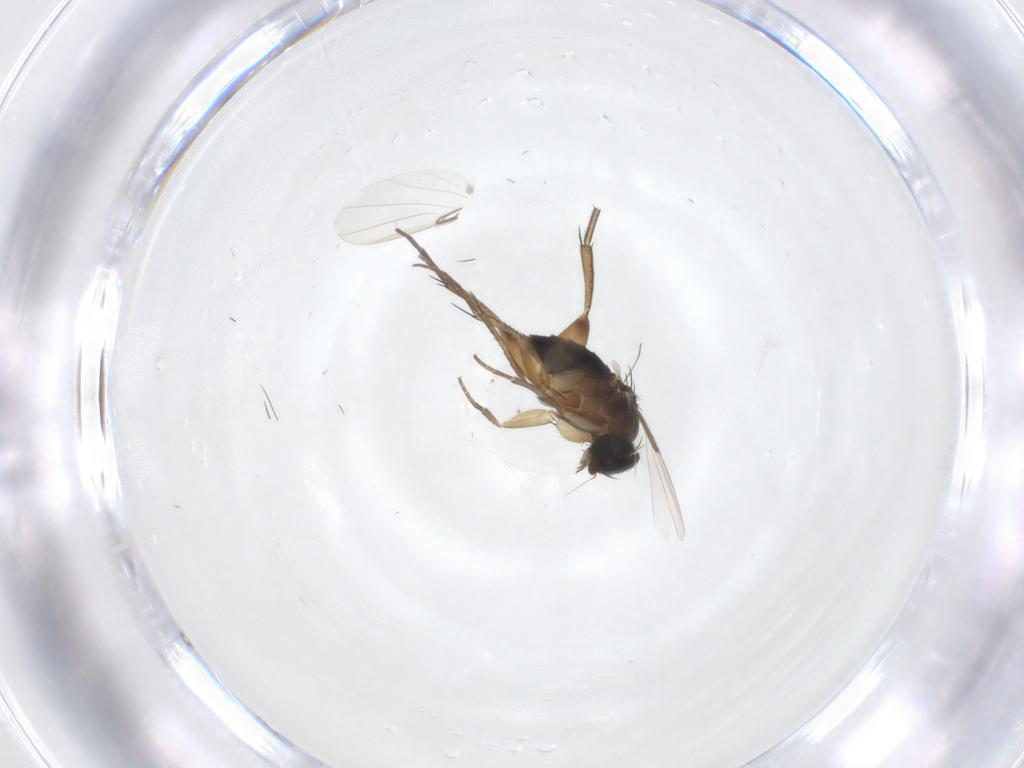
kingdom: Animalia
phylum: Arthropoda
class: Insecta
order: Diptera
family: Phoridae
